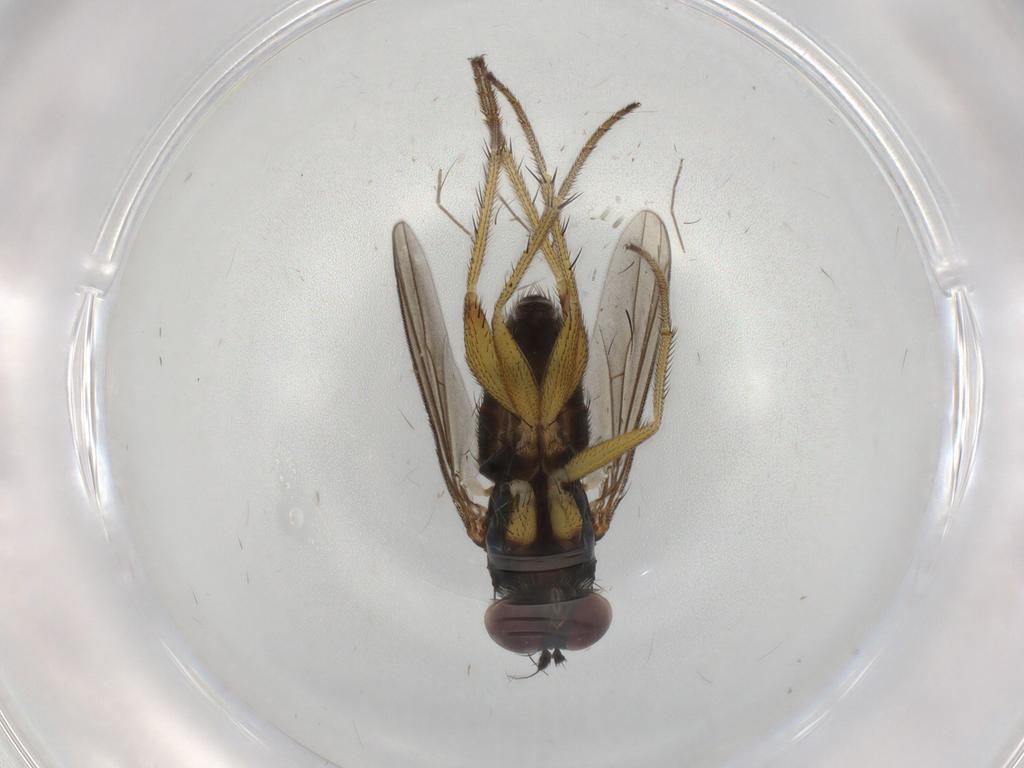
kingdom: Animalia
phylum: Arthropoda
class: Insecta
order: Diptera
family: Dolichopodidae
